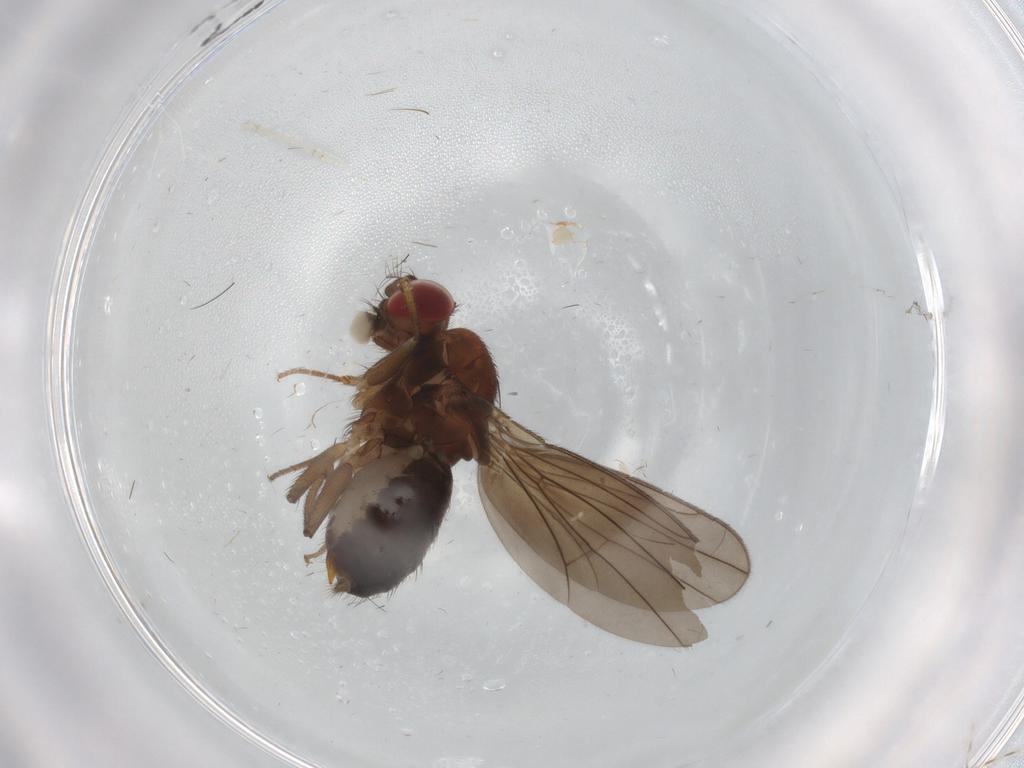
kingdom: Animalia
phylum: Arthropoda
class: Insecta
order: Diptera
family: Drosophilidae
